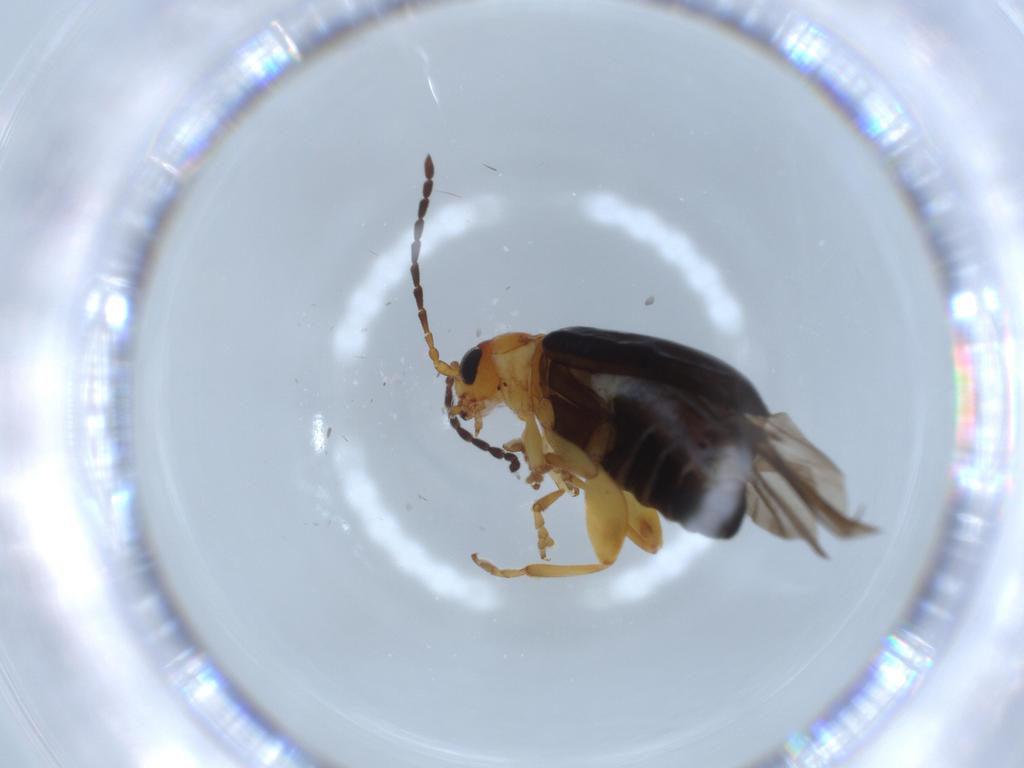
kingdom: Animalia
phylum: Arthropoda
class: Insecta
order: Coleoptera
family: Chrysomelidae
